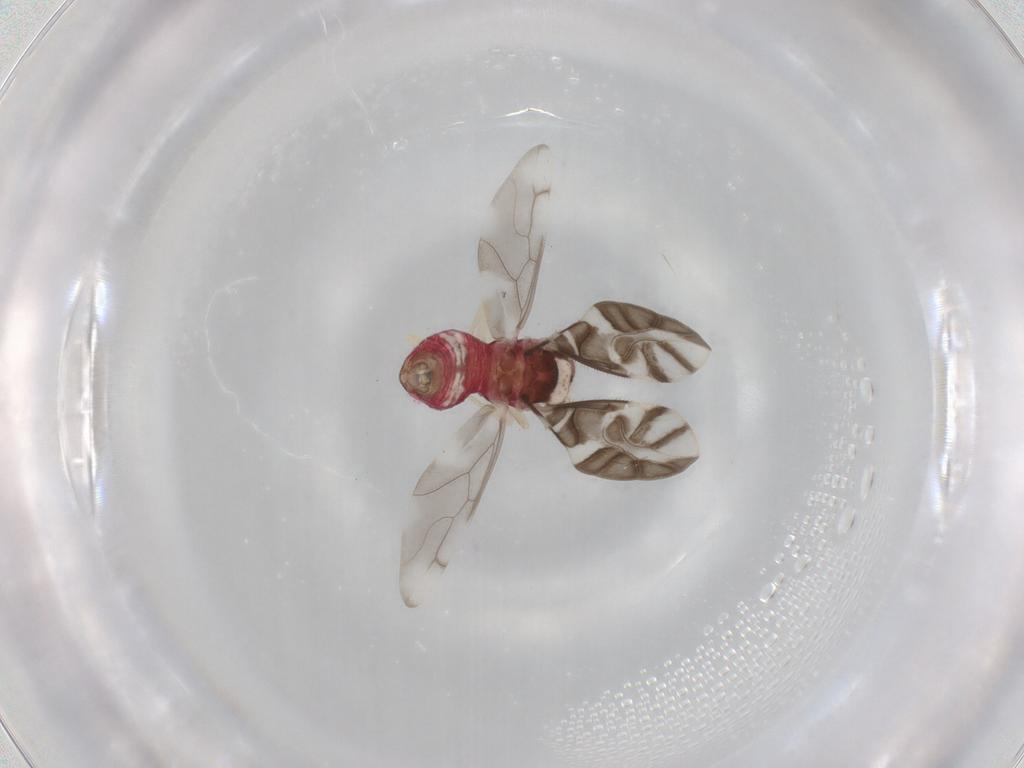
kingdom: Animalia
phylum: Arthropoda
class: Insecta
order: Psocodea
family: Caeciliusidae
